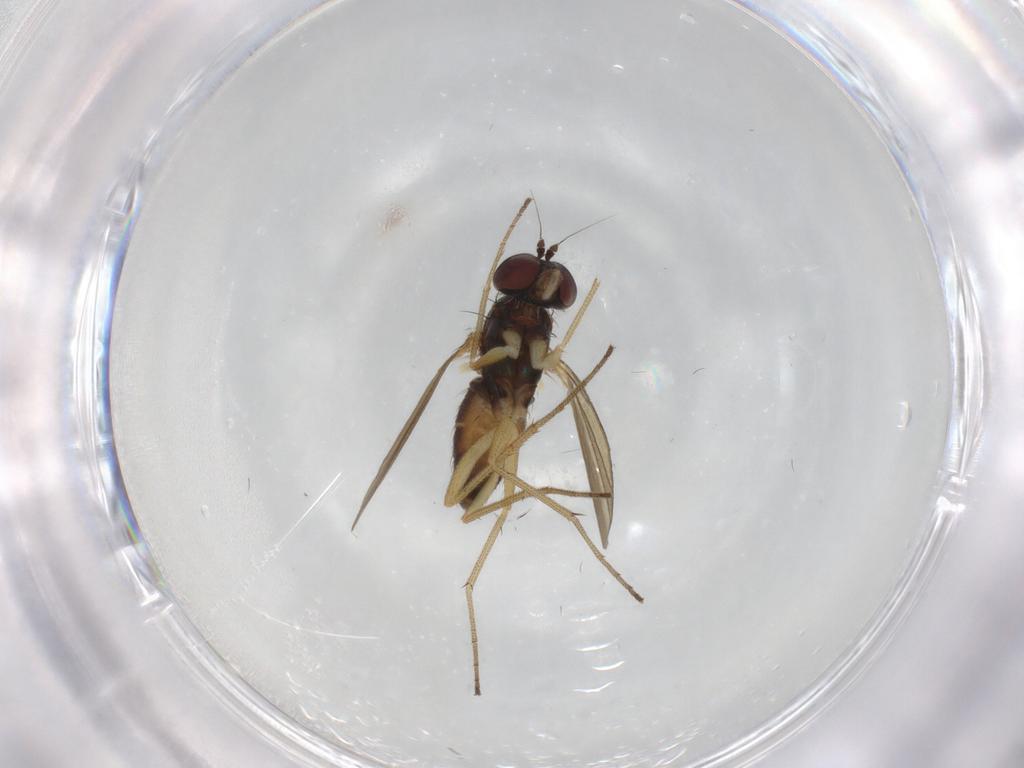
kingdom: Animalia
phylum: Arthropoda
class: Insecta
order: Diptera
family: Dolichopodidae
